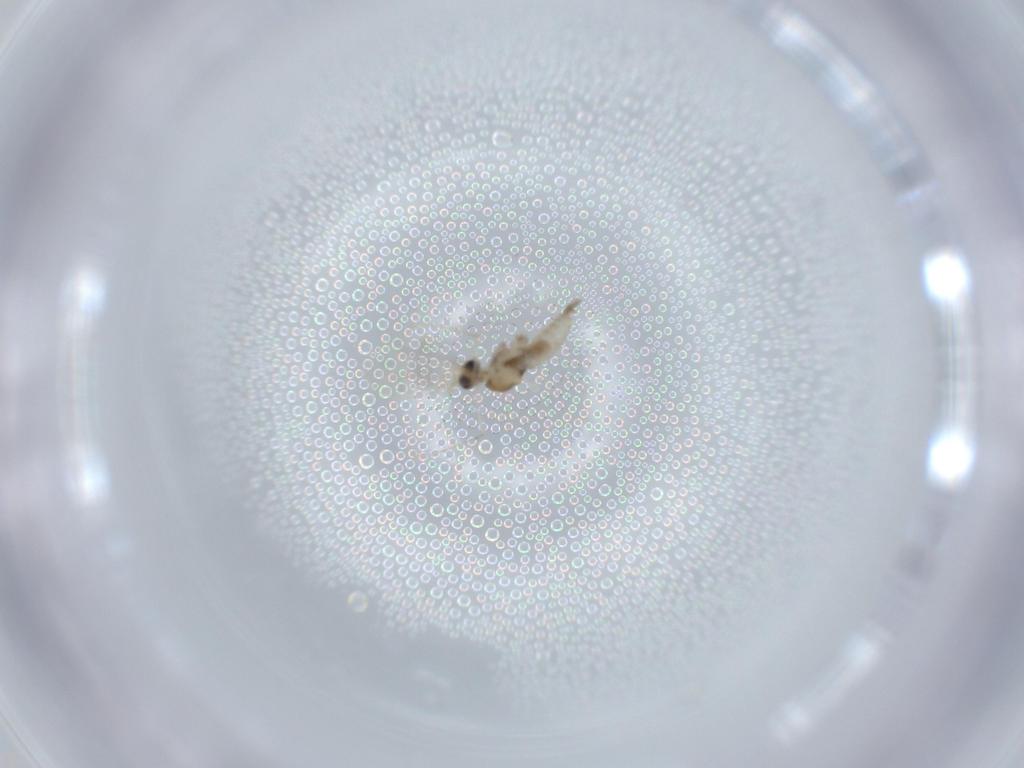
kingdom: Animalia
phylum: Arthropoda
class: Insecta
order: Diptera
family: Cecidomyiidae
